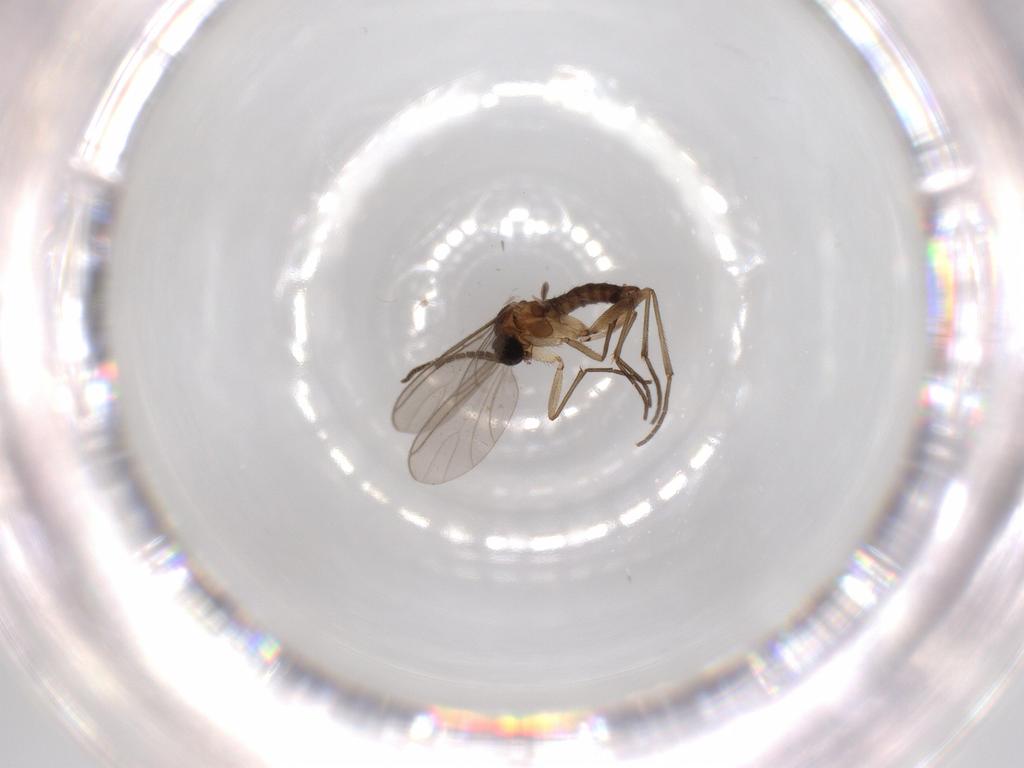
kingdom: Animalia
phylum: Arthropoda
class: Insecta
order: Diptera
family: Sciaridae
